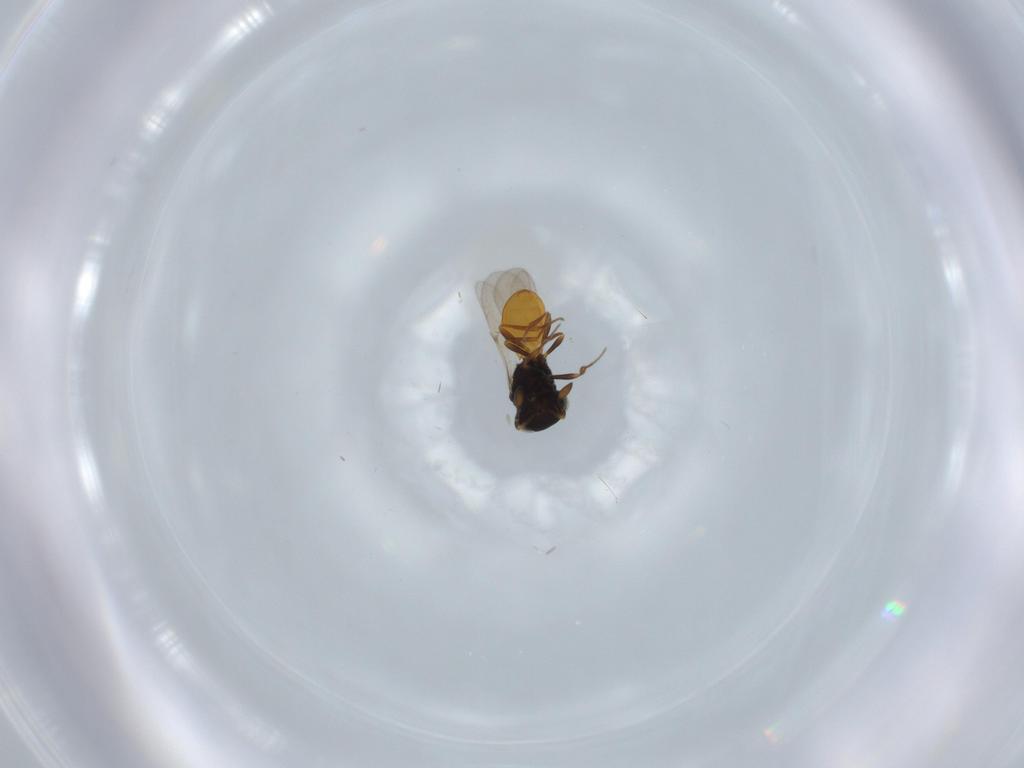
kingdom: Animalia
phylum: Arthropoda
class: Insecta
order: Hymenoptera
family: Scelionidae
